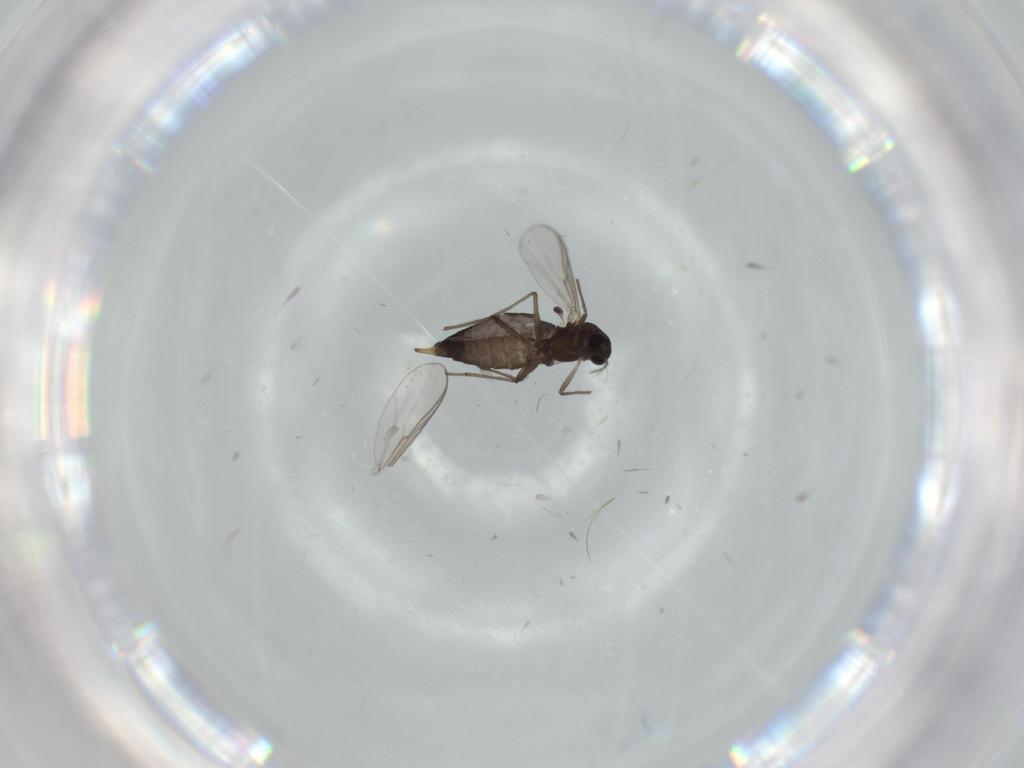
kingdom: Animalia
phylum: Arthropoda
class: Insecta
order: Diptera
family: Chironomidae
